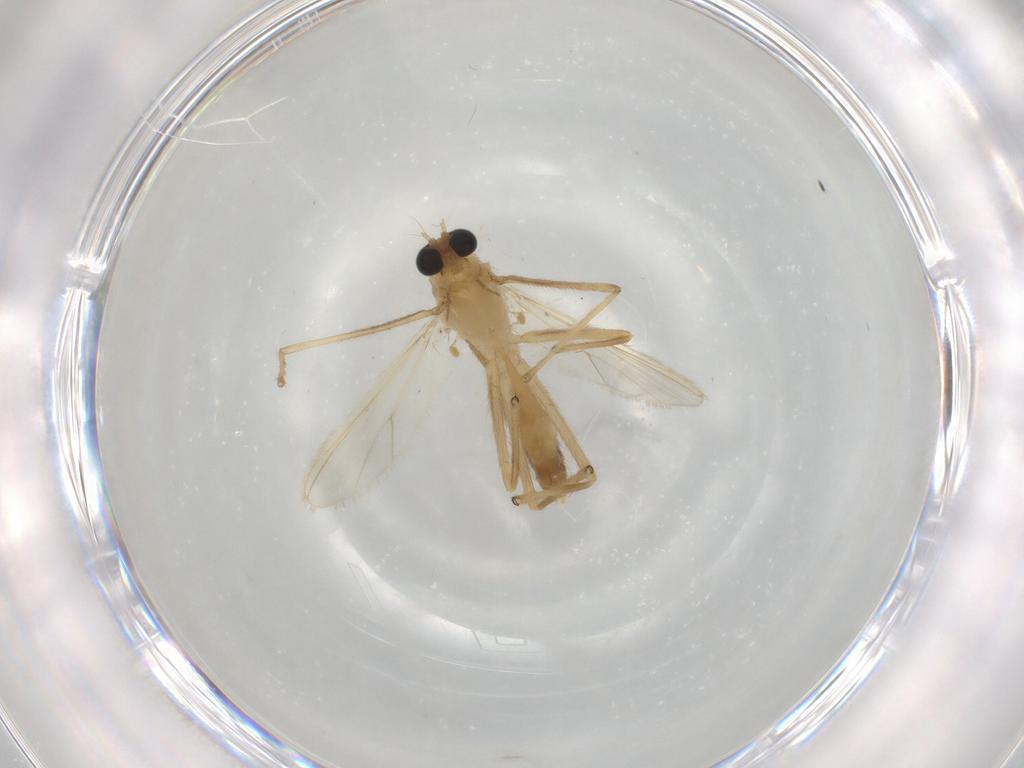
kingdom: Animalia
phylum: Arthropoda
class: Insecta
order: Diptera
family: Chironomidae
